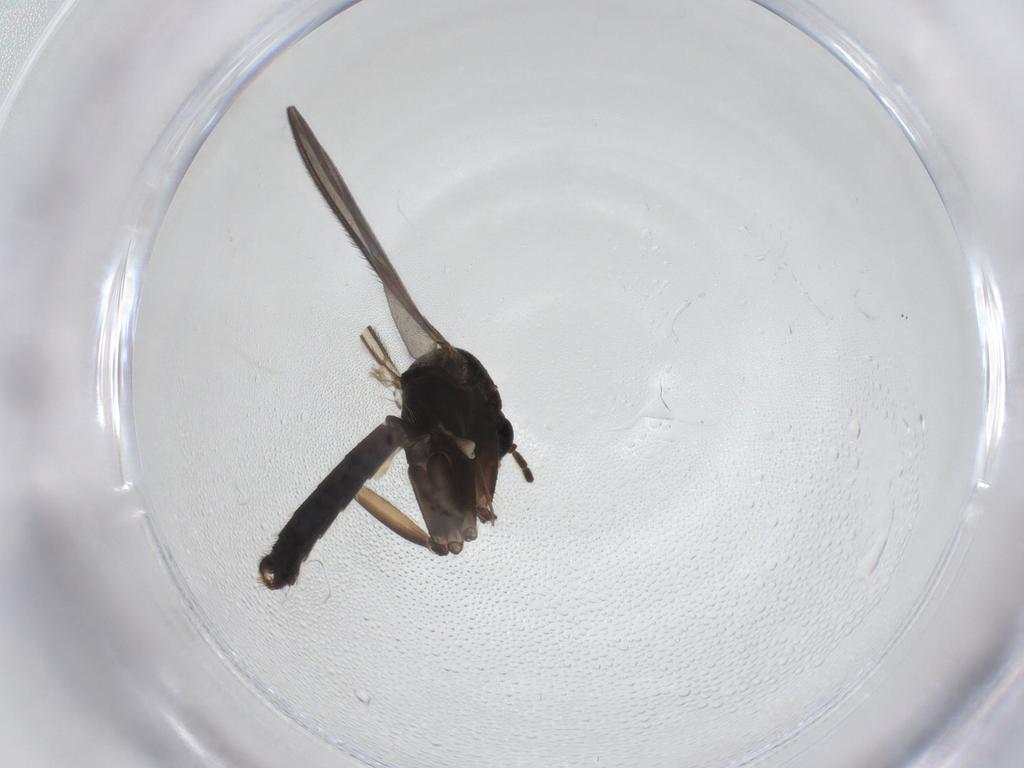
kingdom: Animalia
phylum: Arthropoda
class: Insecta
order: Diptera
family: Mycetophilidae
